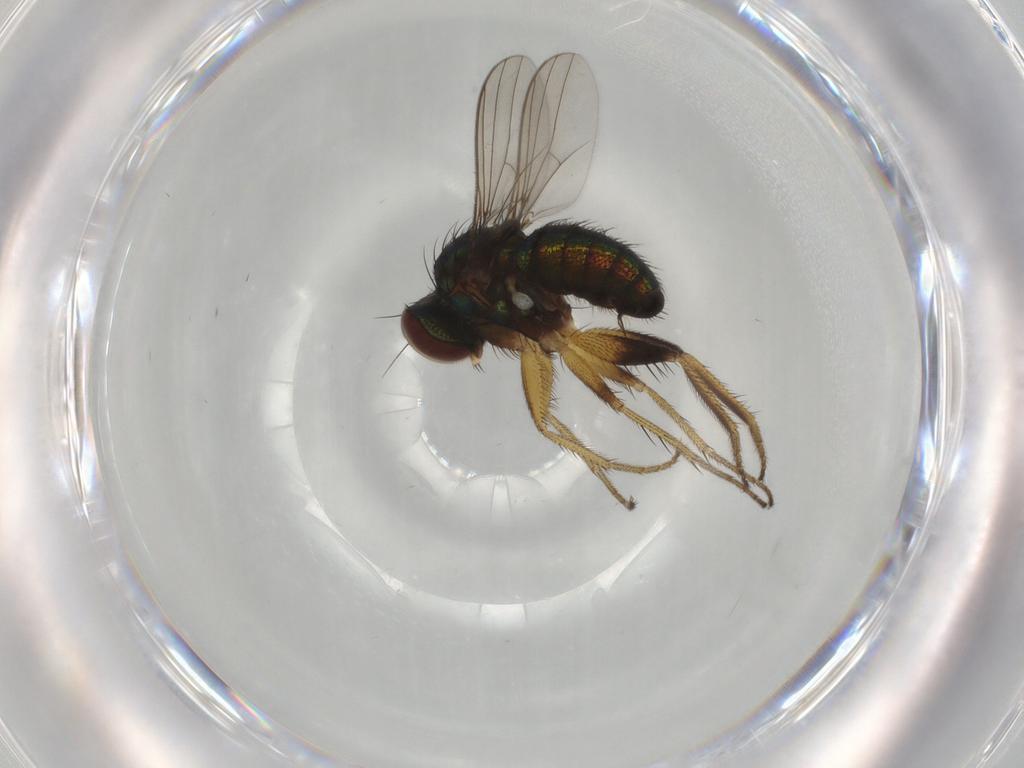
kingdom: Animalia
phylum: Arthropoda
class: Insecta
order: Diptera
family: Dolichopodidae
